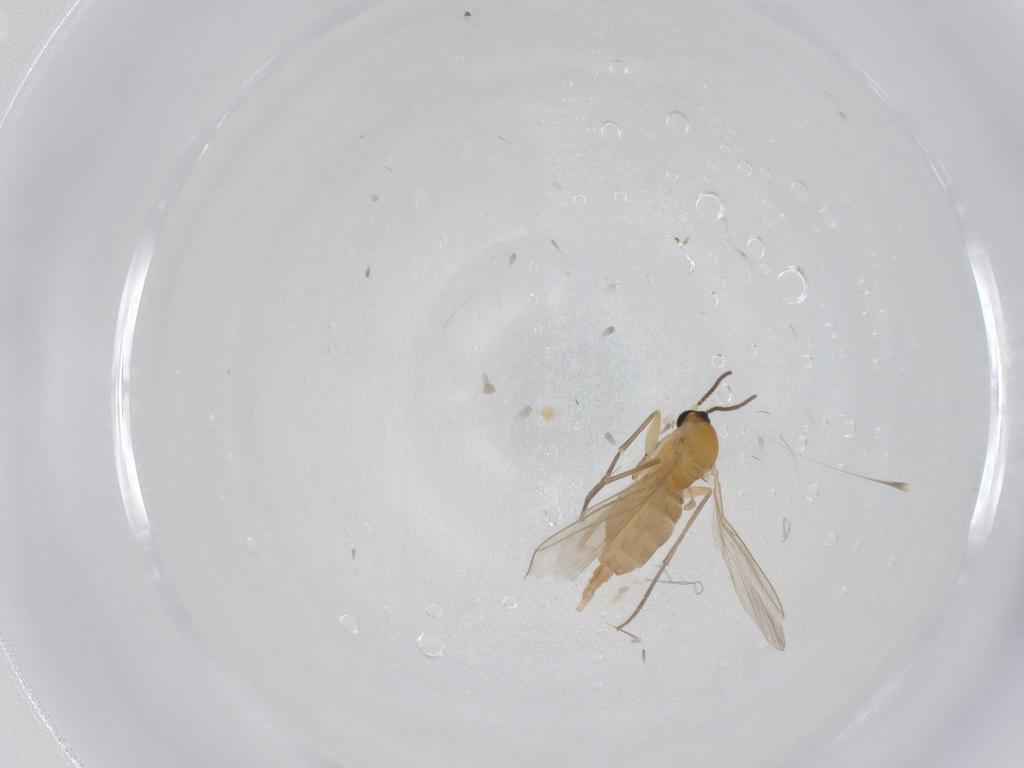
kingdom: Animalia
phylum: Arthropoda
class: Insecta
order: Diptera
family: Sciaridae
